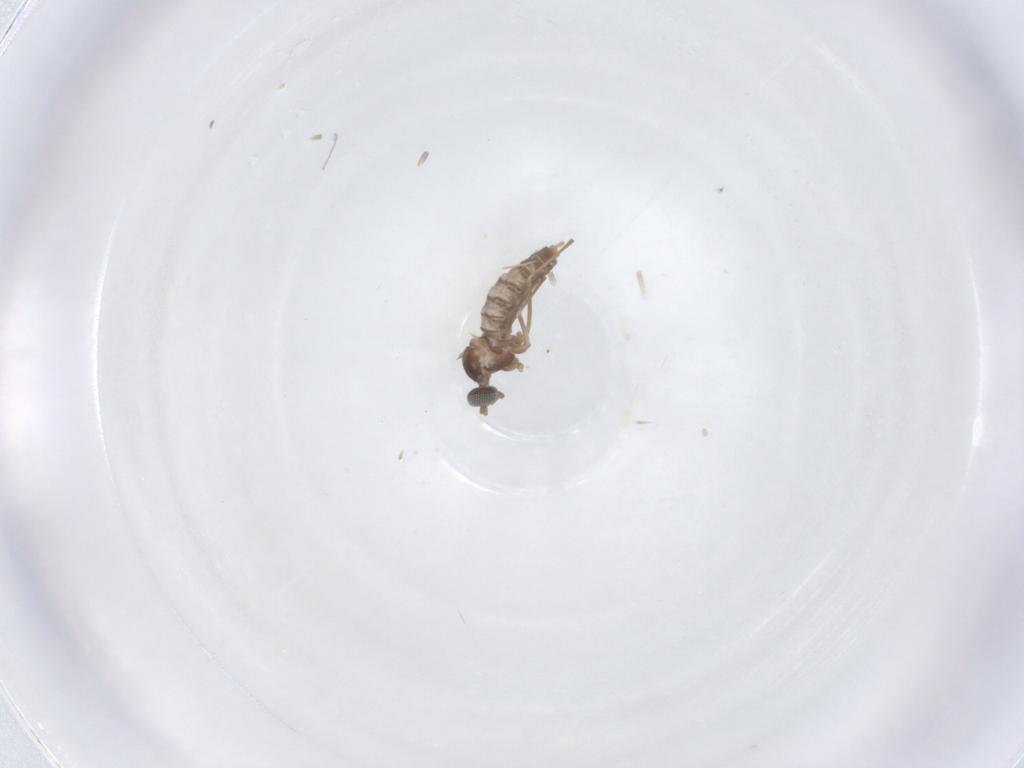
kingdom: Animalia
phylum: Arthropoda
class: Insecta
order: Diptera
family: Cecidomyiidae
